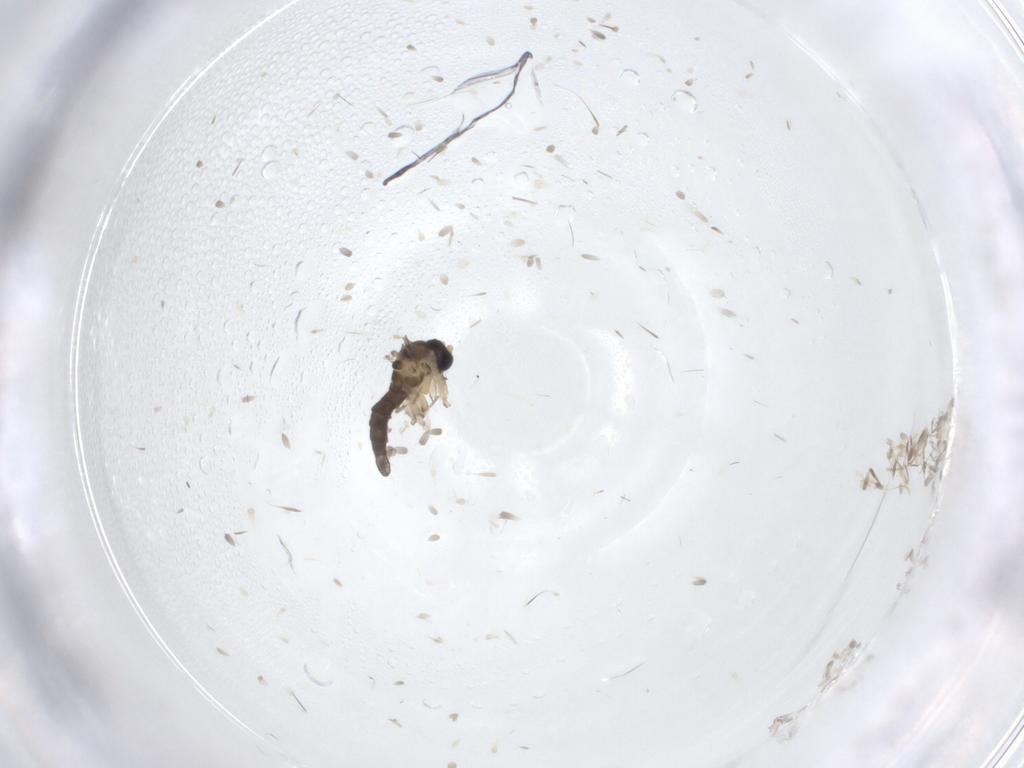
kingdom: Animalia
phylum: Arthropoda
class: Insecta
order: Diptera
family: Sciaridae
